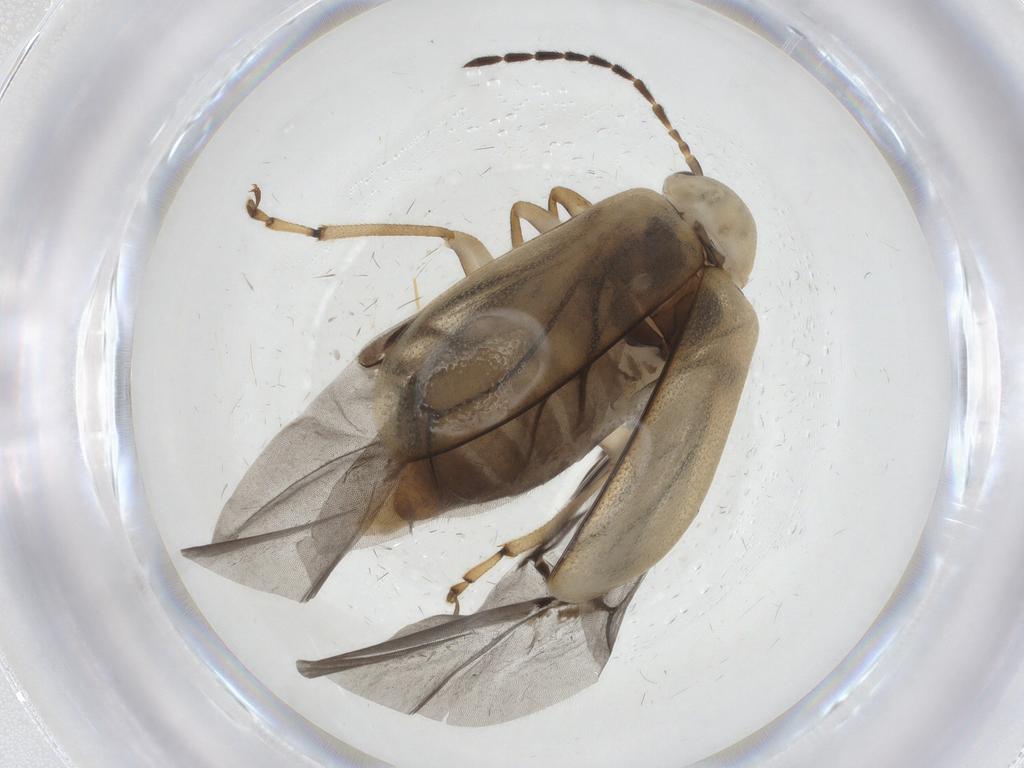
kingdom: Animalia
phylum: Arthropoda
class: Insecta
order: Coleoptera
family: Chrysomelidae
